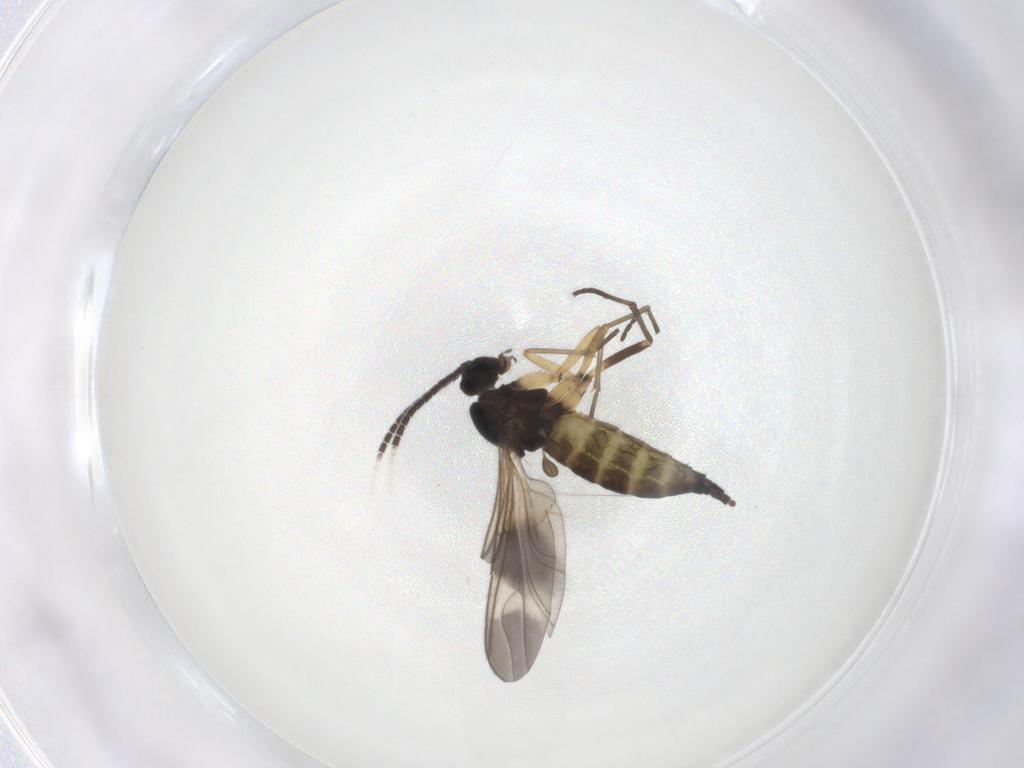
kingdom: Animalia
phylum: Arthropoda
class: Insecta
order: Diptera
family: Sciaridae
